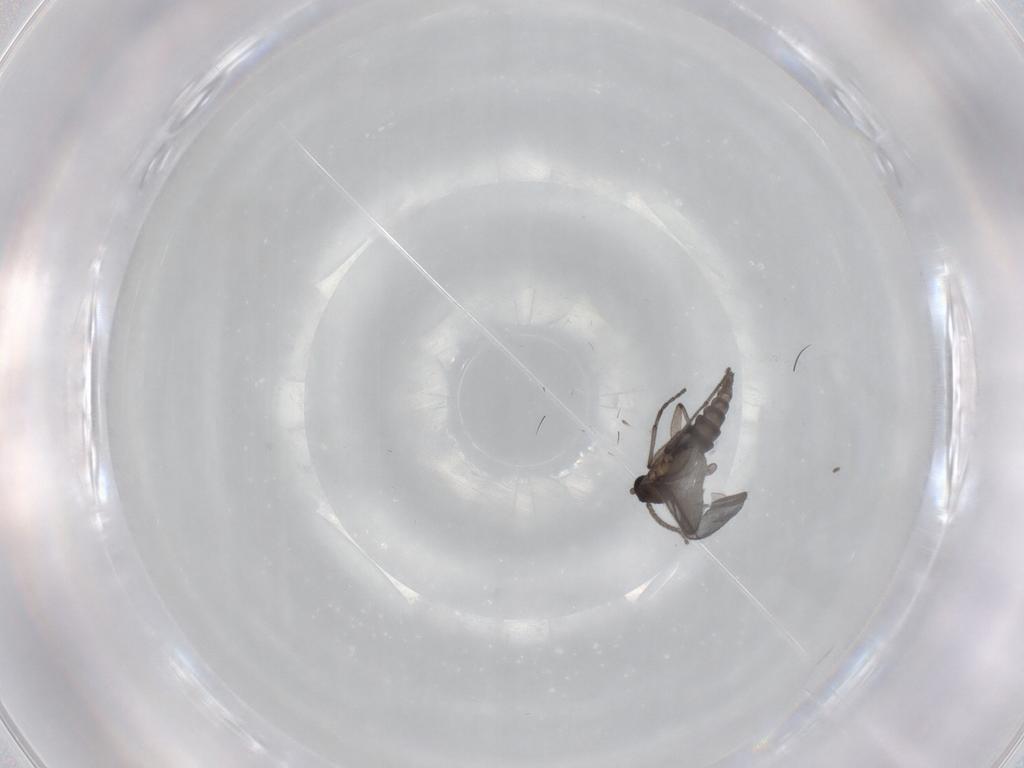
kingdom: Animalia
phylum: Arthropoda
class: Insecta
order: Diptera
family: Sciaridae
